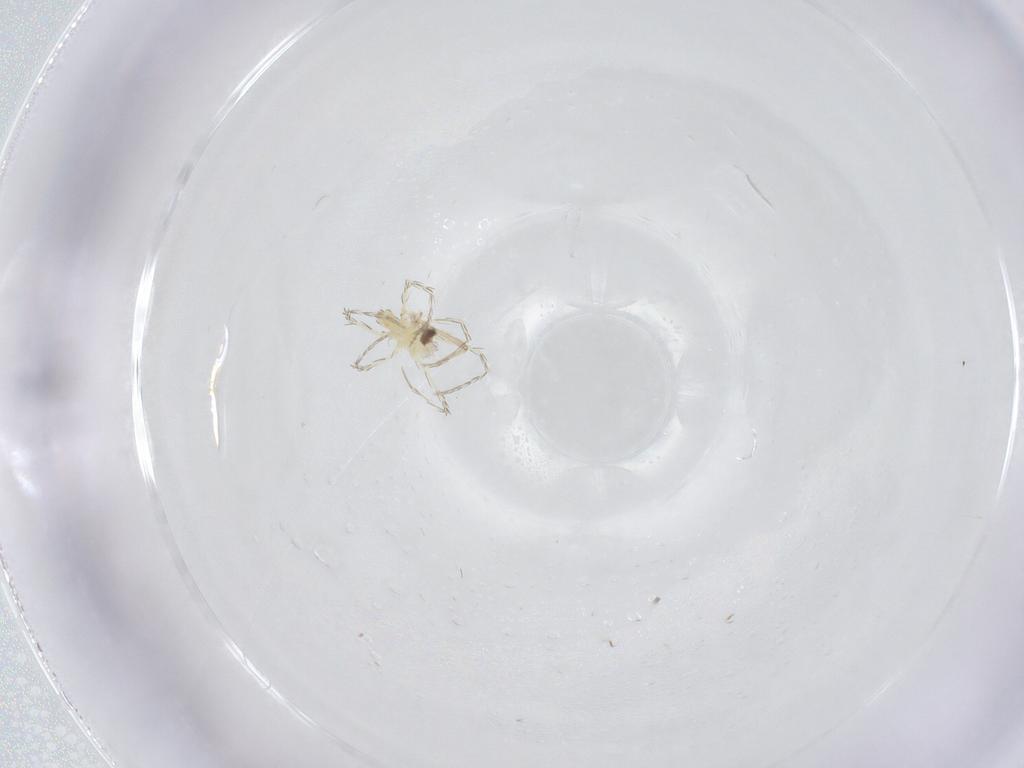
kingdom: Animalia
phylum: Arthropoda
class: Insecta
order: Diptera
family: Chironomidae
